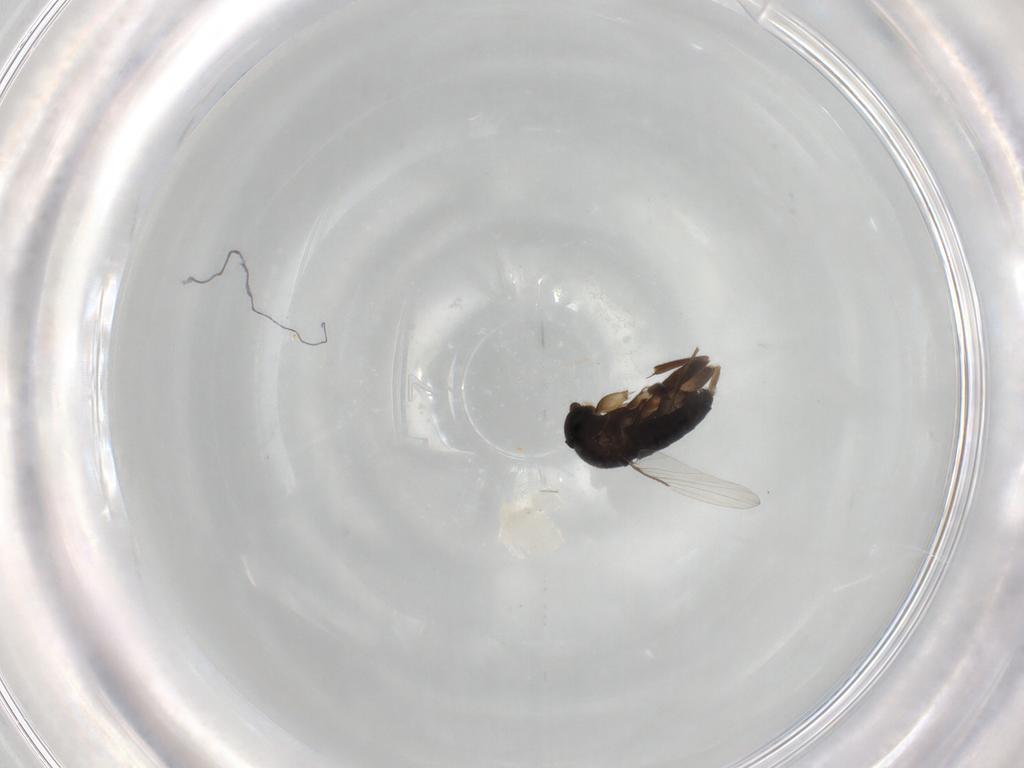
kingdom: Animalia
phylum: Arthropoda
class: Insecta
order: Diptera
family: Phoridae
